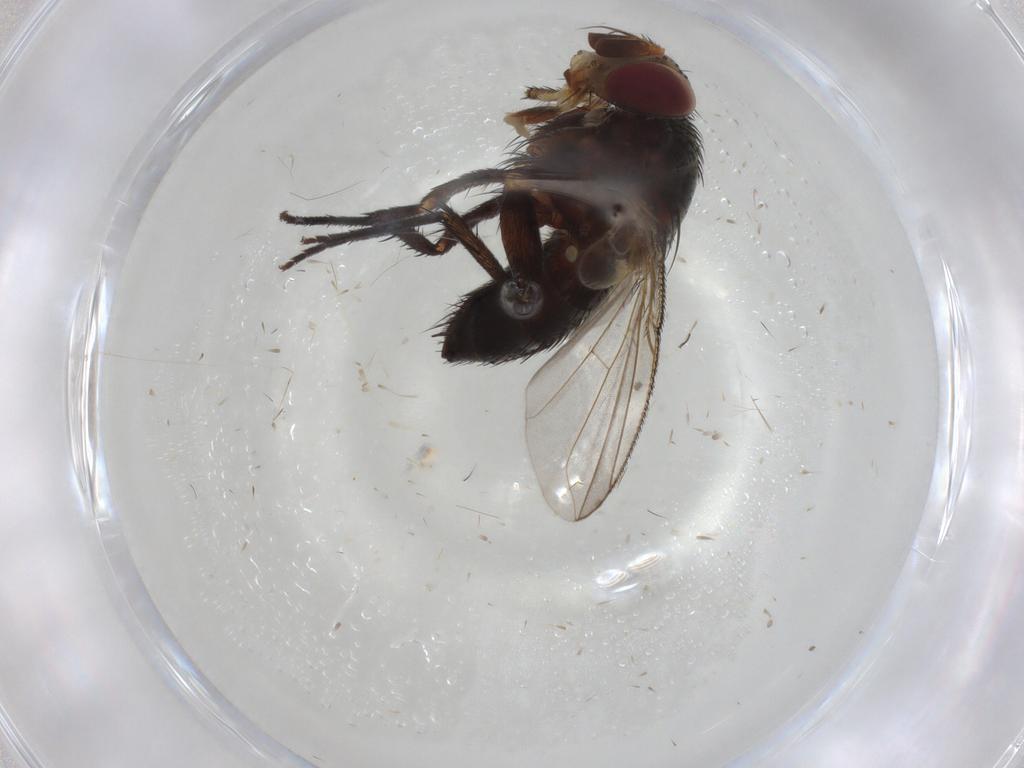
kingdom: Animalia
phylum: Arthropoda
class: Insecta
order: Diptera
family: Tachinidae
